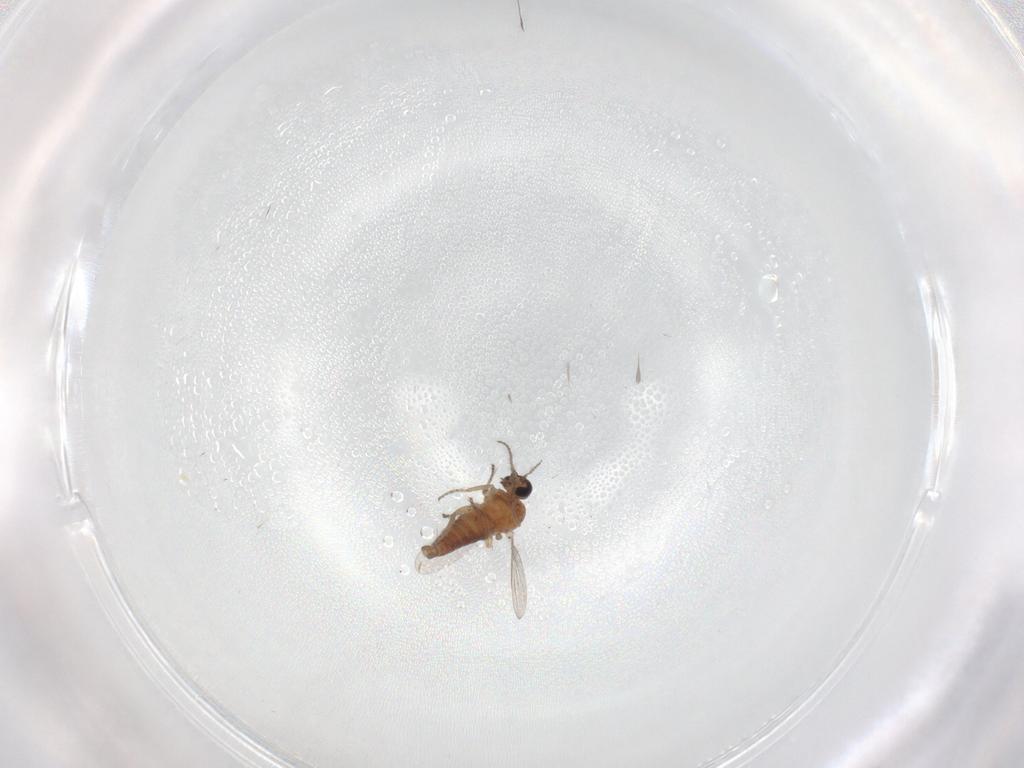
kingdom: Animalia
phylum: Arthropoda
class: Insecta
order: Diptera
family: Ceratopogonidae
